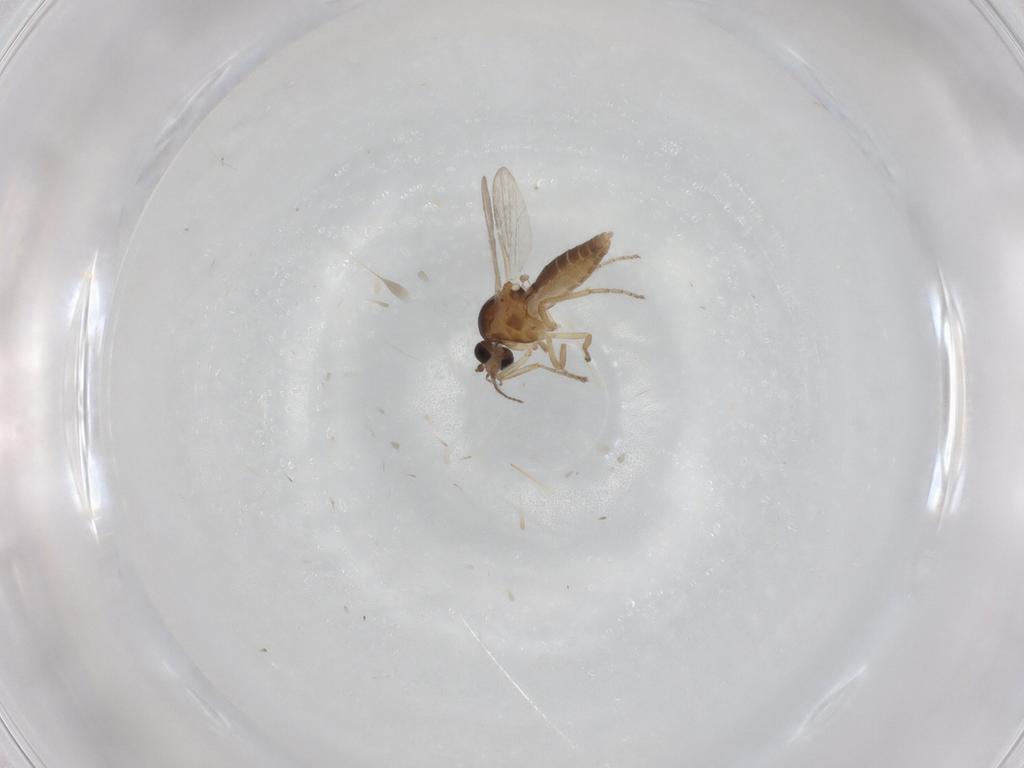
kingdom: Animalia
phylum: Arthropoda
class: Insecta
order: Diptera
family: Ceratopogonidae
